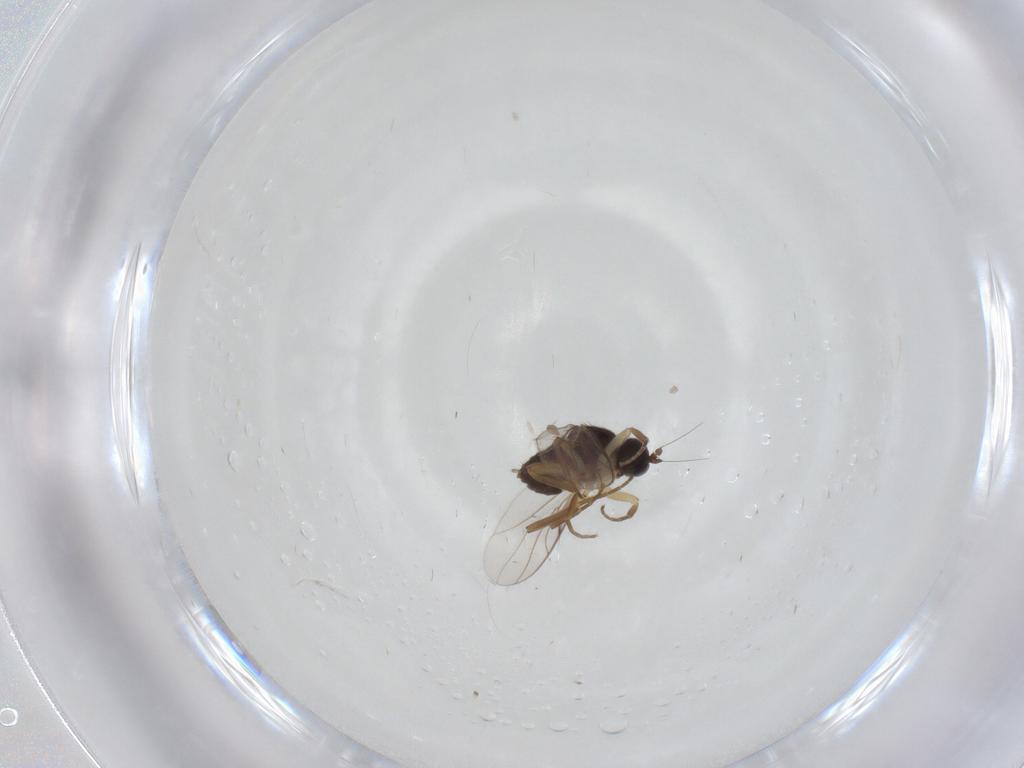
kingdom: Animalia
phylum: Arthropoda
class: Insecta
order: Diptera
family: Hybotidae
